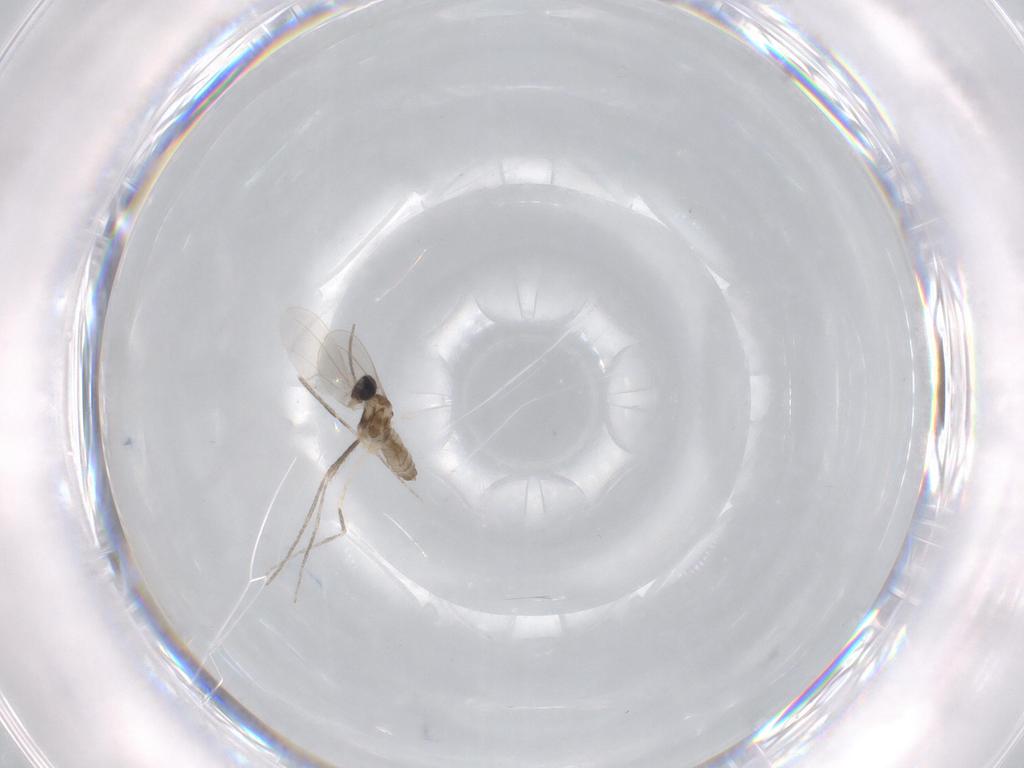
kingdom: Animalia
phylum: Arthropoda
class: Insecta
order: Diptera
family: Cecidomyiidae
